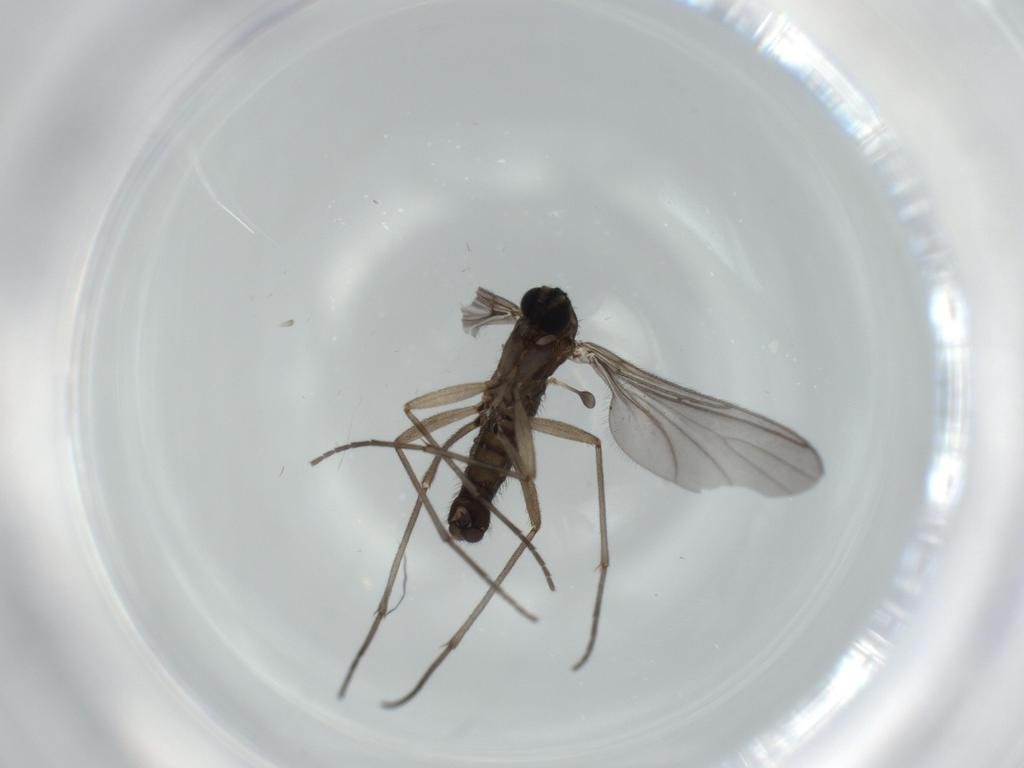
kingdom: Animalia
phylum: Arthropoda
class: Insecta
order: Diptera
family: Sciaridae
